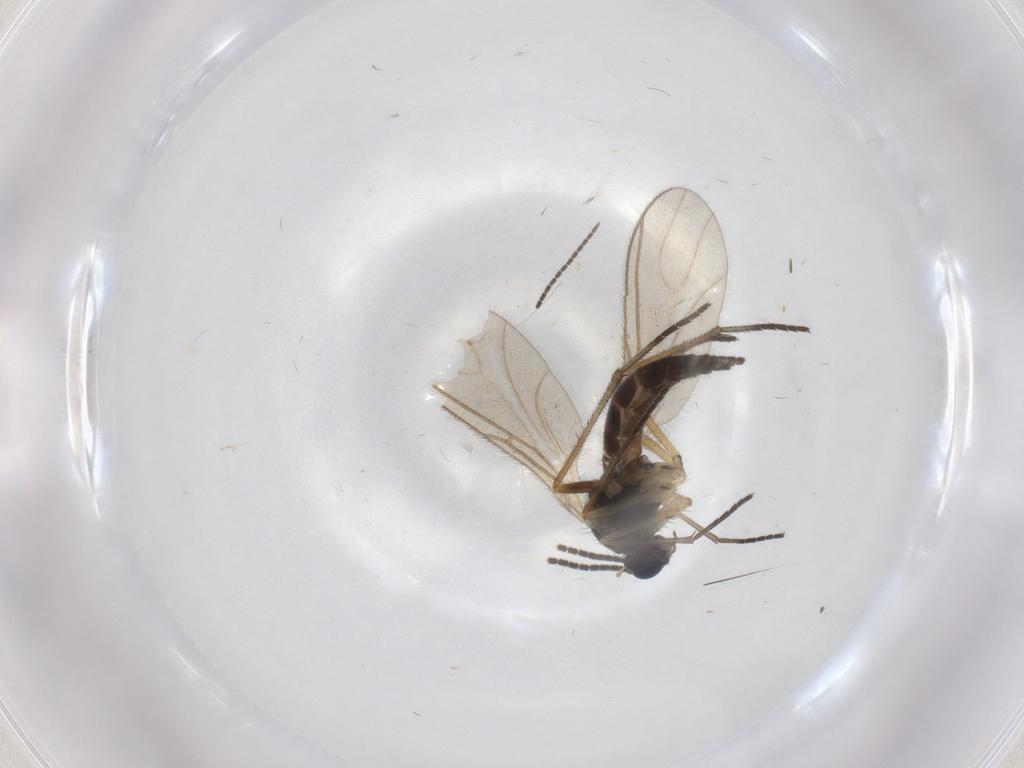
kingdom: Animalia
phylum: Arthropoda
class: Insecta
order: Diptera
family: Sciaridae
